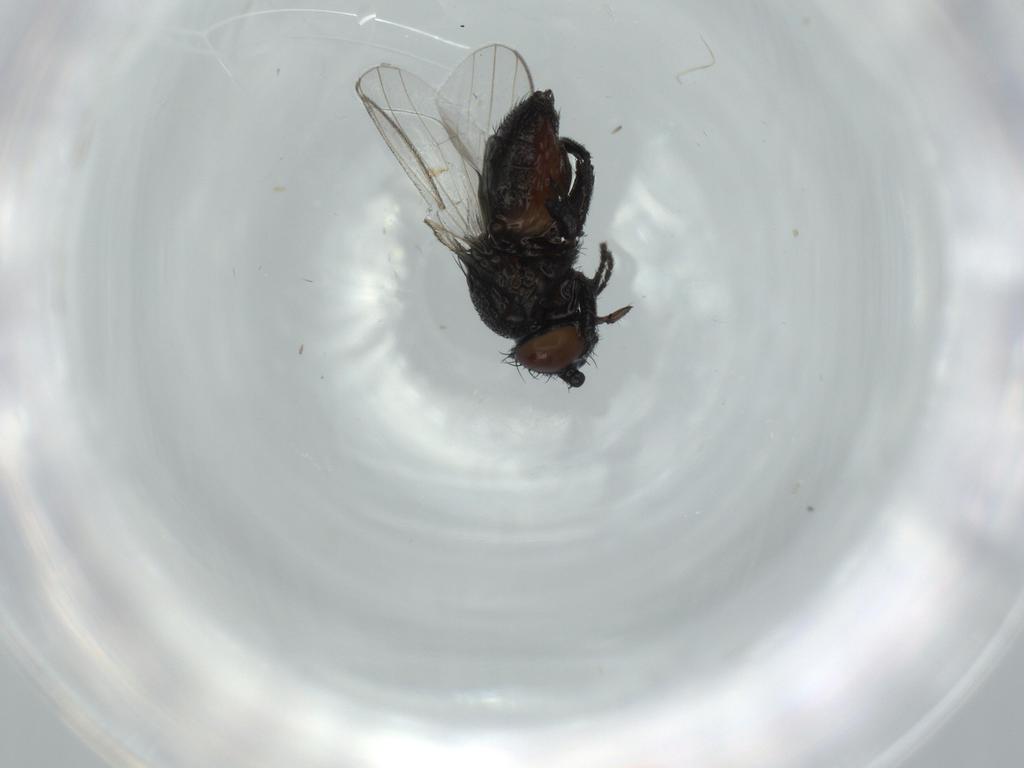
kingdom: Animalia
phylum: Arthropoda
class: Insecta
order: Diptera
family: Milichiidae
